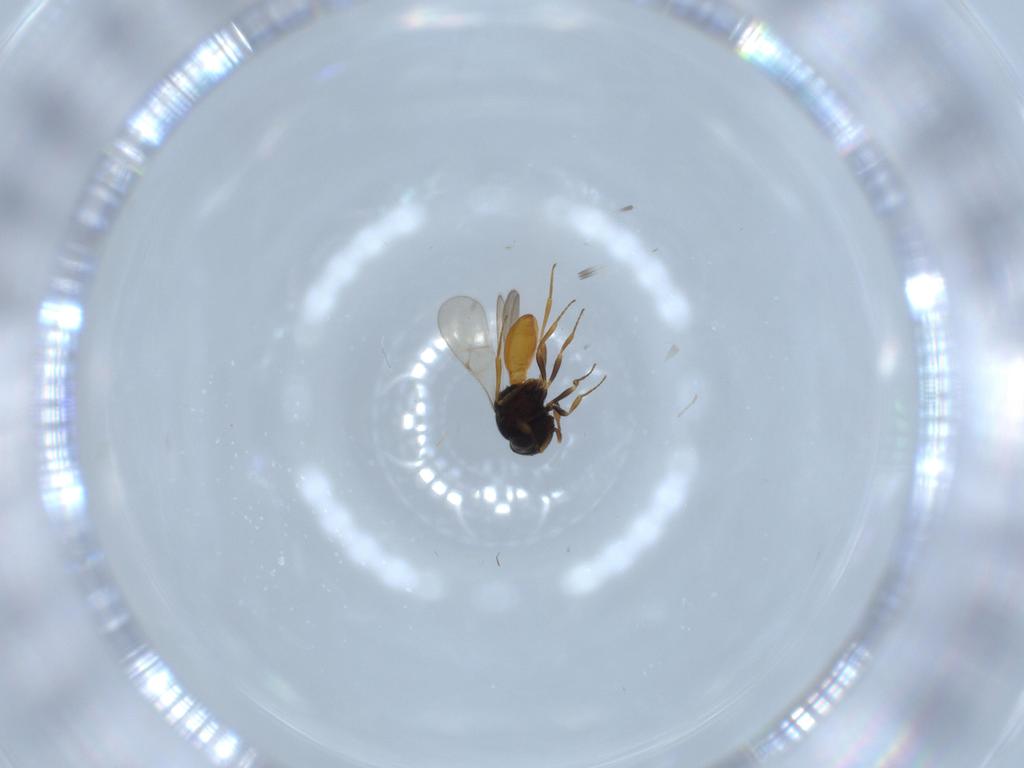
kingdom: Animalia
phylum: Arthropoda
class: Insecta
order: Hymenoptera
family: Scelionidae
